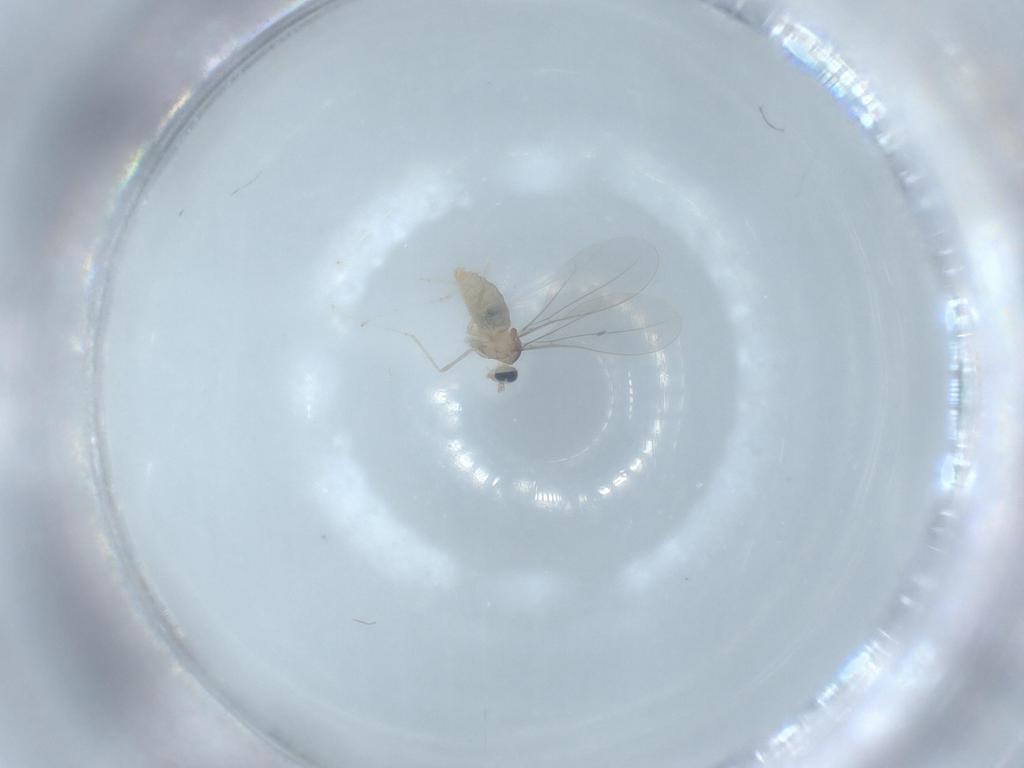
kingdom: Animalia
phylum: Arthropoda
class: Insecta
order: Diptera
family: Cecidomyiidae
